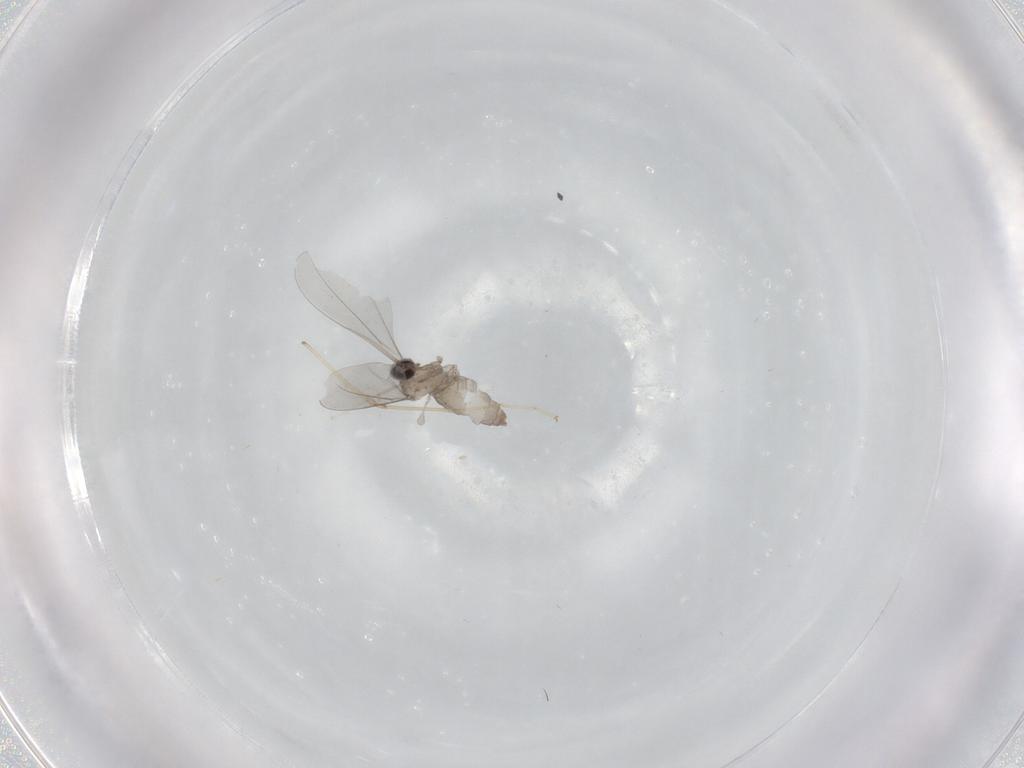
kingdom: Animalia
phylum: Arthropoda
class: Insecta
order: Diptera
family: Cecidomyiidae
